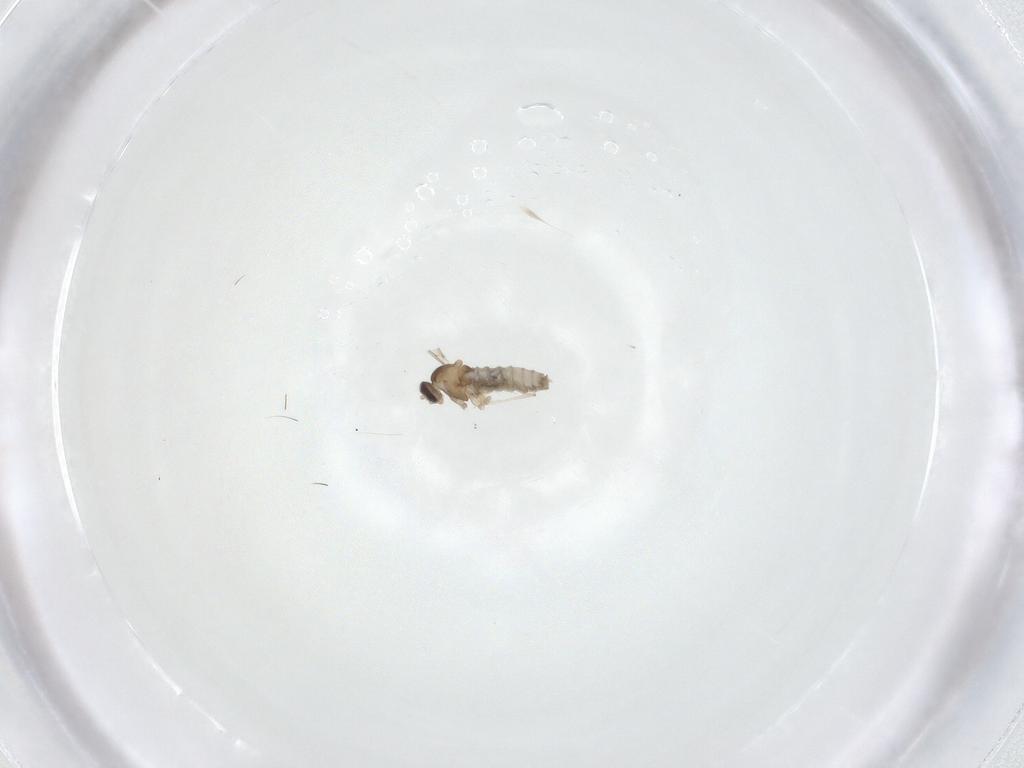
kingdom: Animalia
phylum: Arthropoda
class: Insecta
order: Diptera
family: Cecidomyiidae
